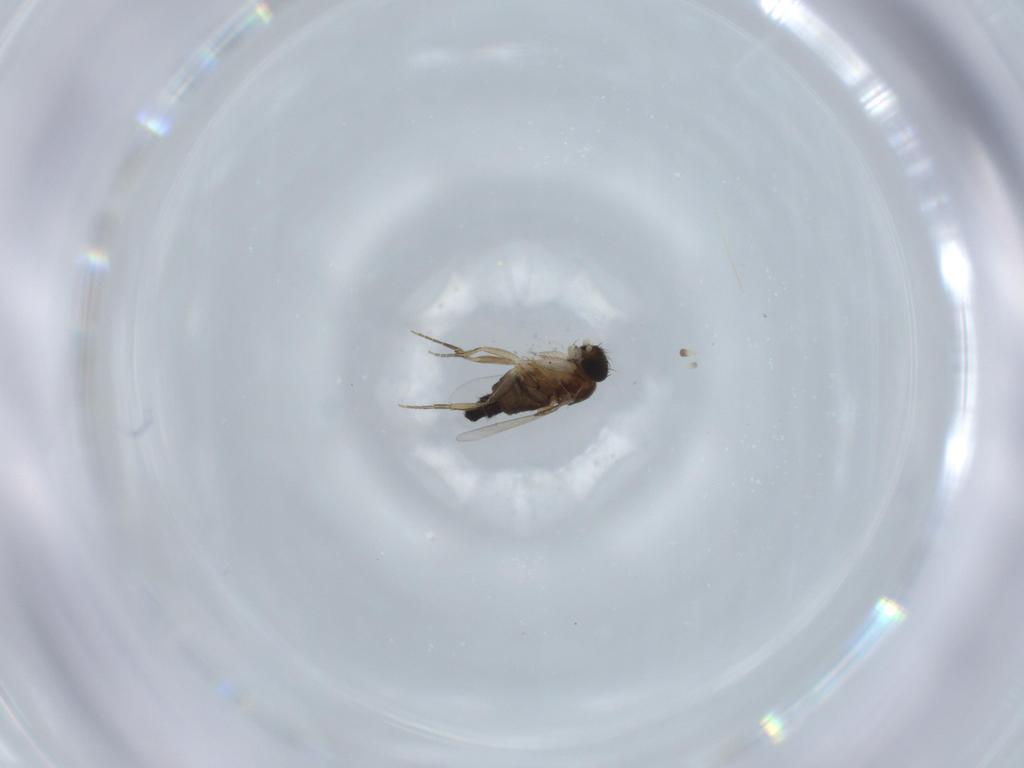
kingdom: Animalia
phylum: Arthropoda
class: Insecta
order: Diptera
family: Phoridae
